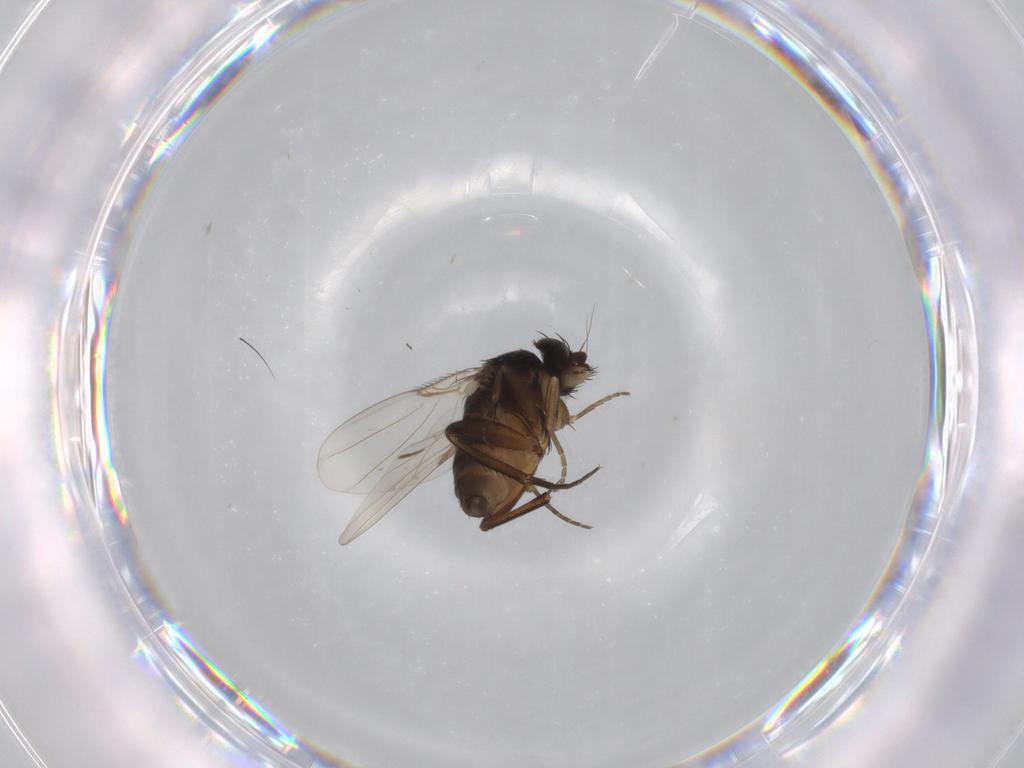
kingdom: Animalia
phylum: Arthropoda
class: Insecta
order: Diptera
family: Phoridae
